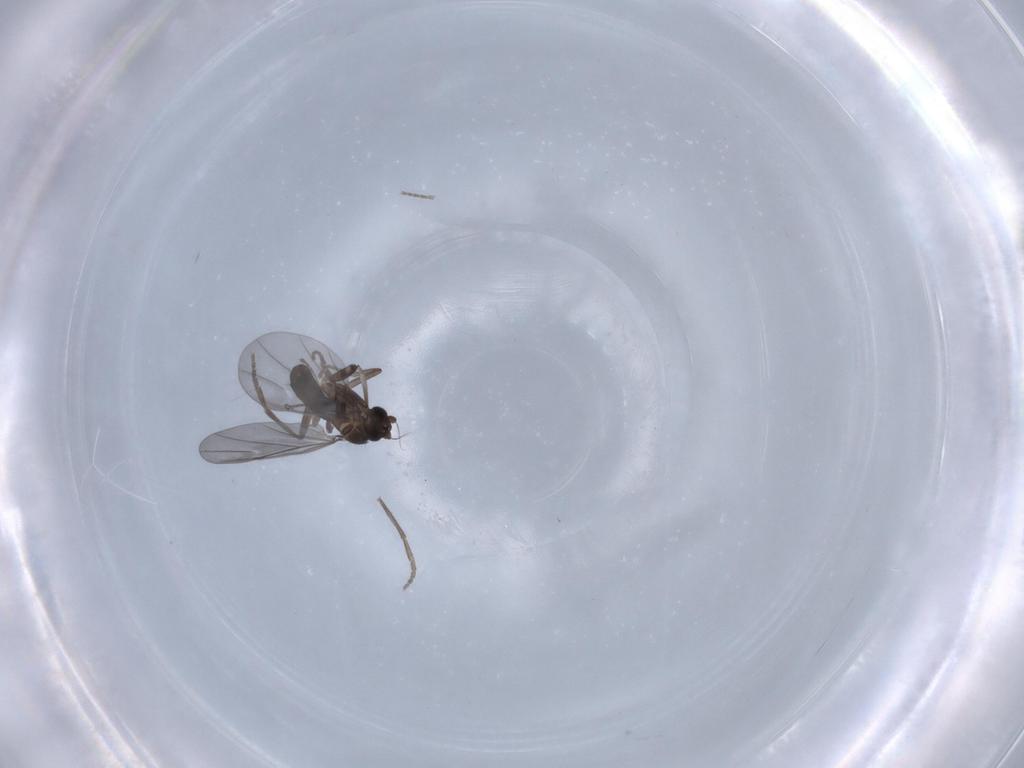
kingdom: Animalia
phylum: Arthropoda
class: Insecta
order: Diptera
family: Phoridae
